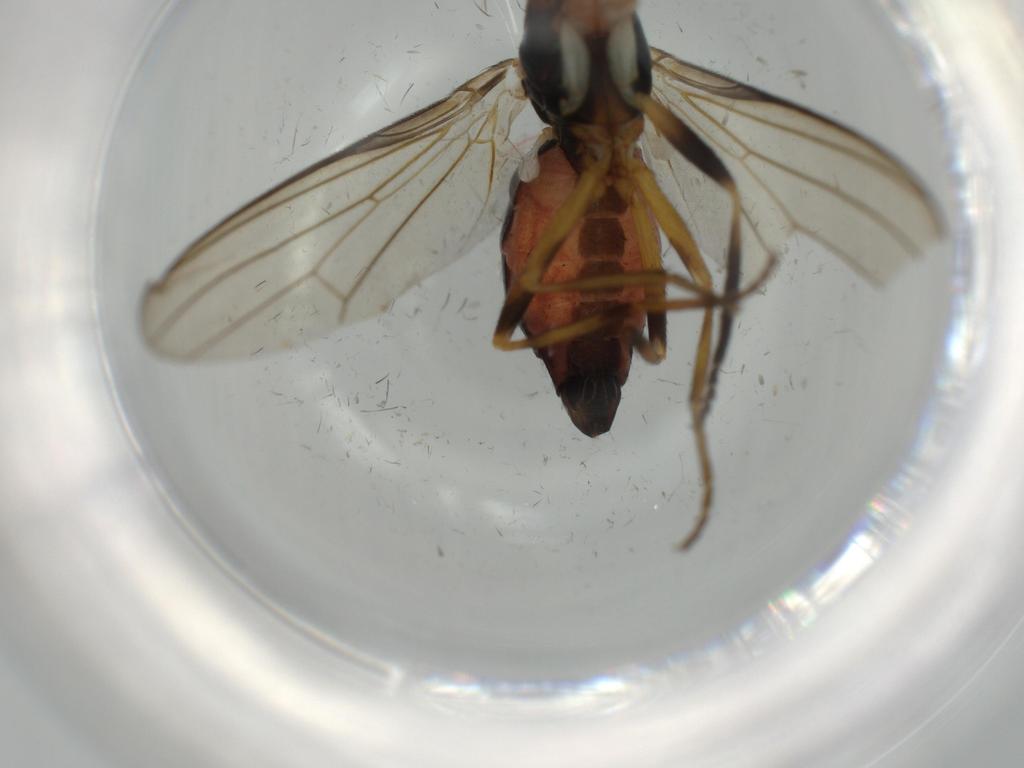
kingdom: Animalia
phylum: Arthropoda
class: Insecta
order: Diptera
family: Piophilidae
